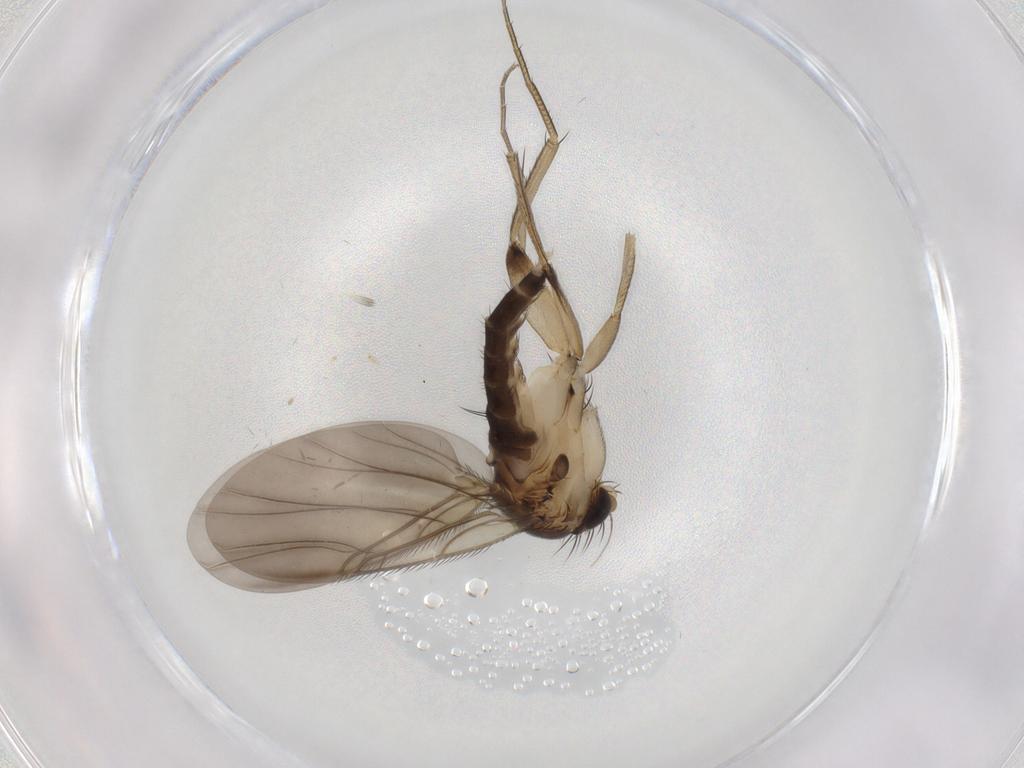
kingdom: Animalia
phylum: Arthropoda
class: Insecta
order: Diptera
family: Phoridae
